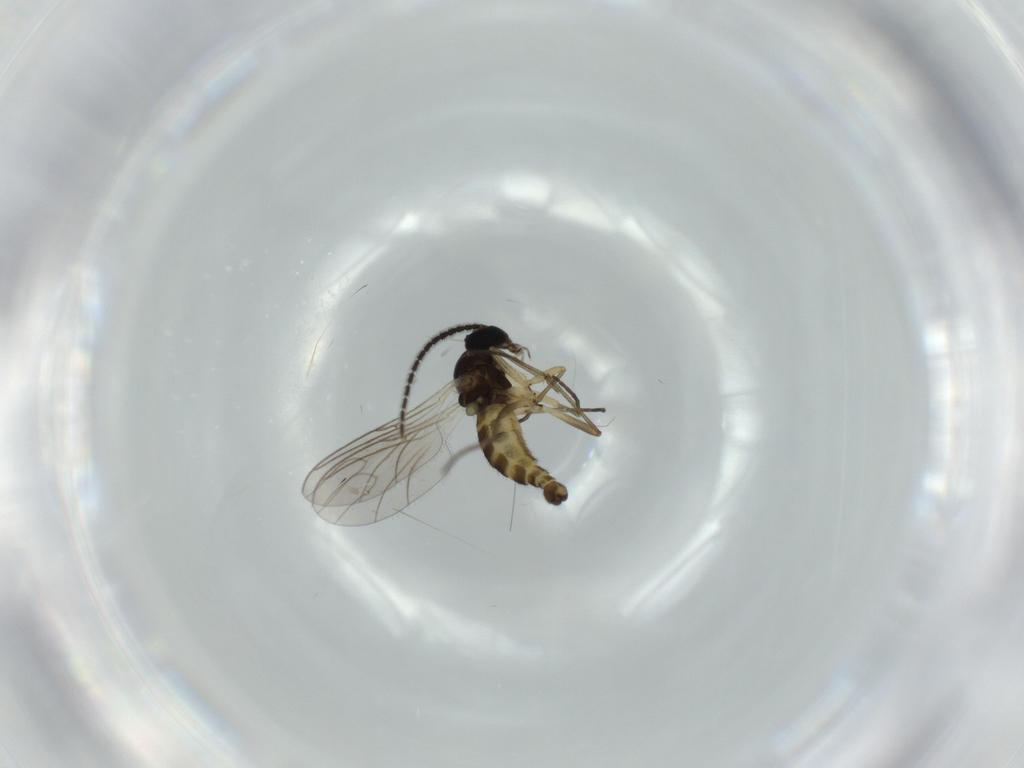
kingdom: Animalia
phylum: Arthropoda
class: Insecta
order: Diptera
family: Sciaridae
